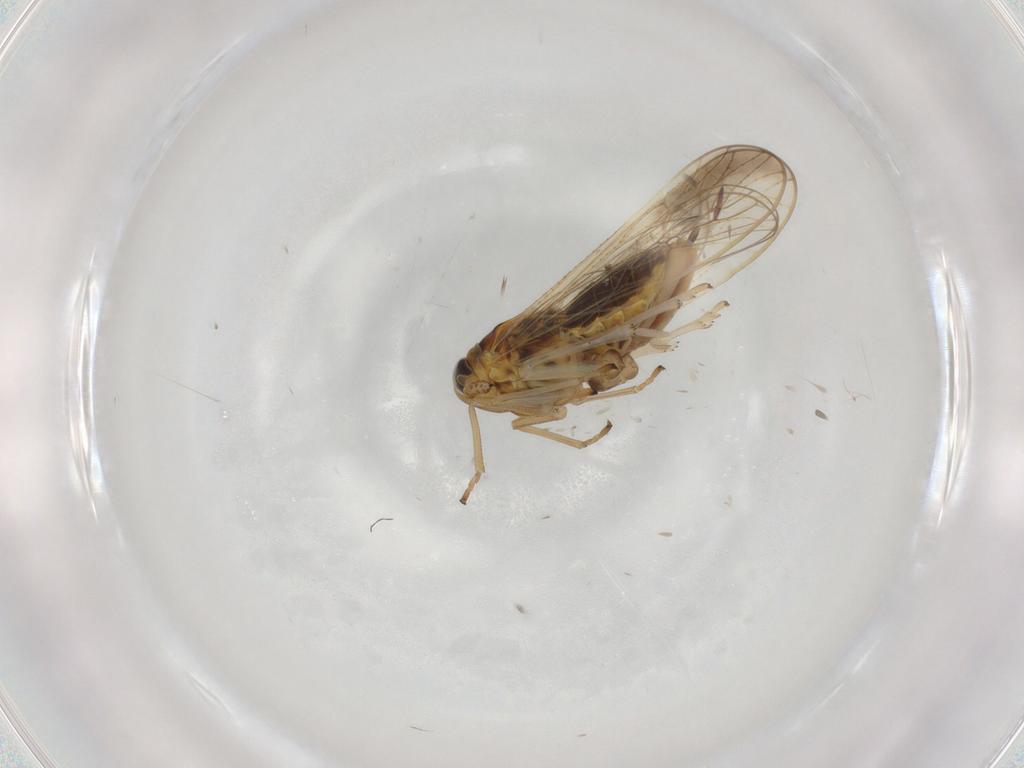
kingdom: Animalia
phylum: Arthropoda
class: Insecta
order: Hemiptera
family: Delphacidae
